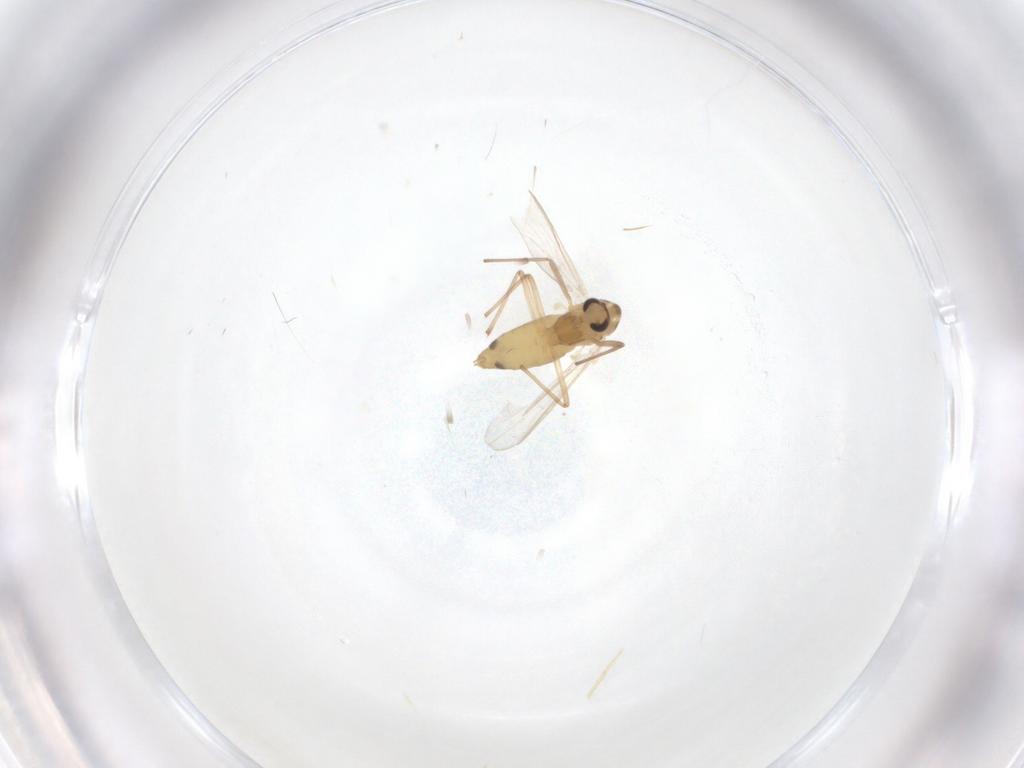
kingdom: Animalia
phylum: Arthropoda
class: Insecta
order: Diptera
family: Chironomidae
